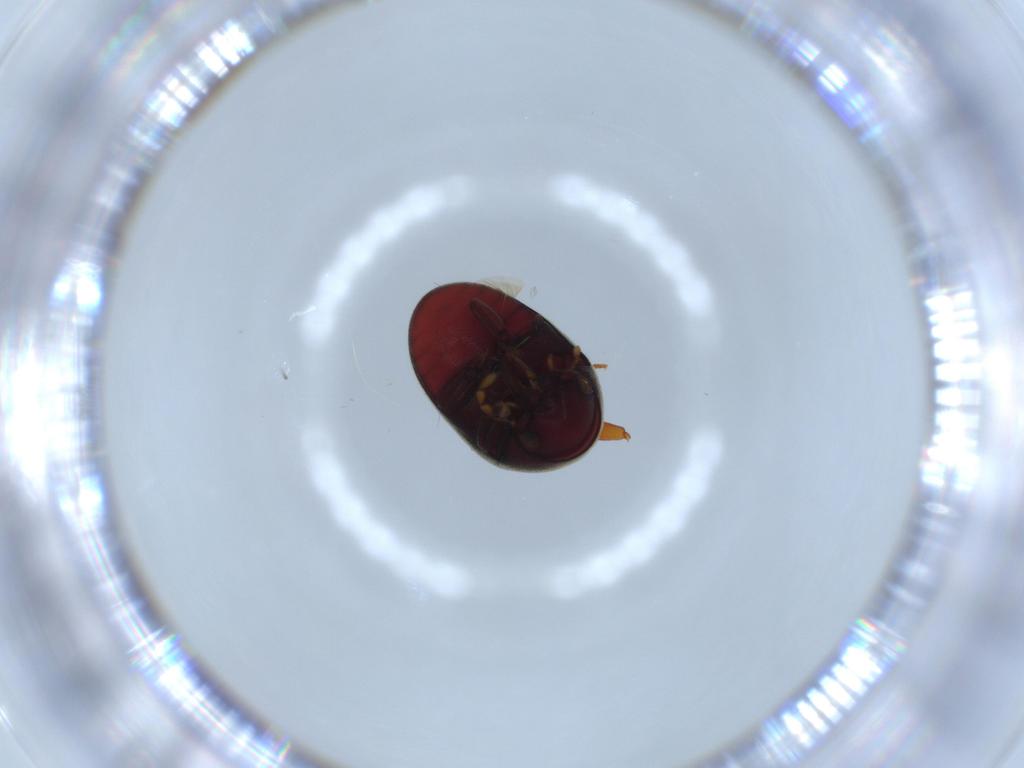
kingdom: Animalia
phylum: Arthropoda
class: Insecta
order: Coleoptera
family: Ptinidae
